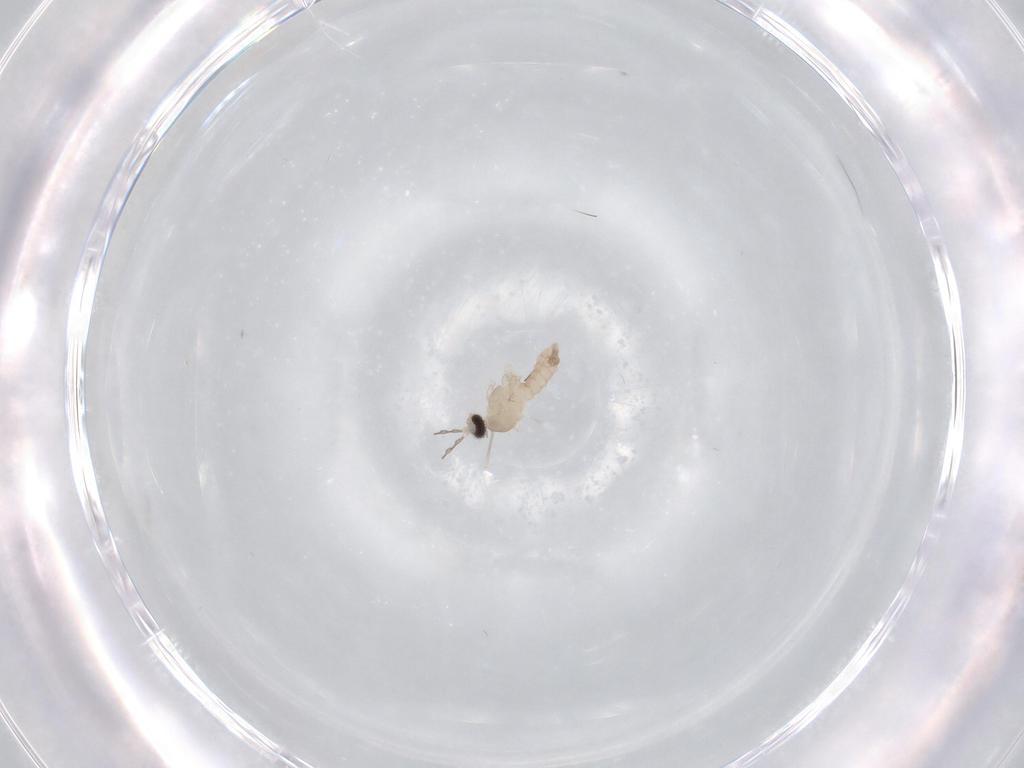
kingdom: Animalia
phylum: Arthropoda
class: Insecta
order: Diptera
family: Cecidomyiidae
